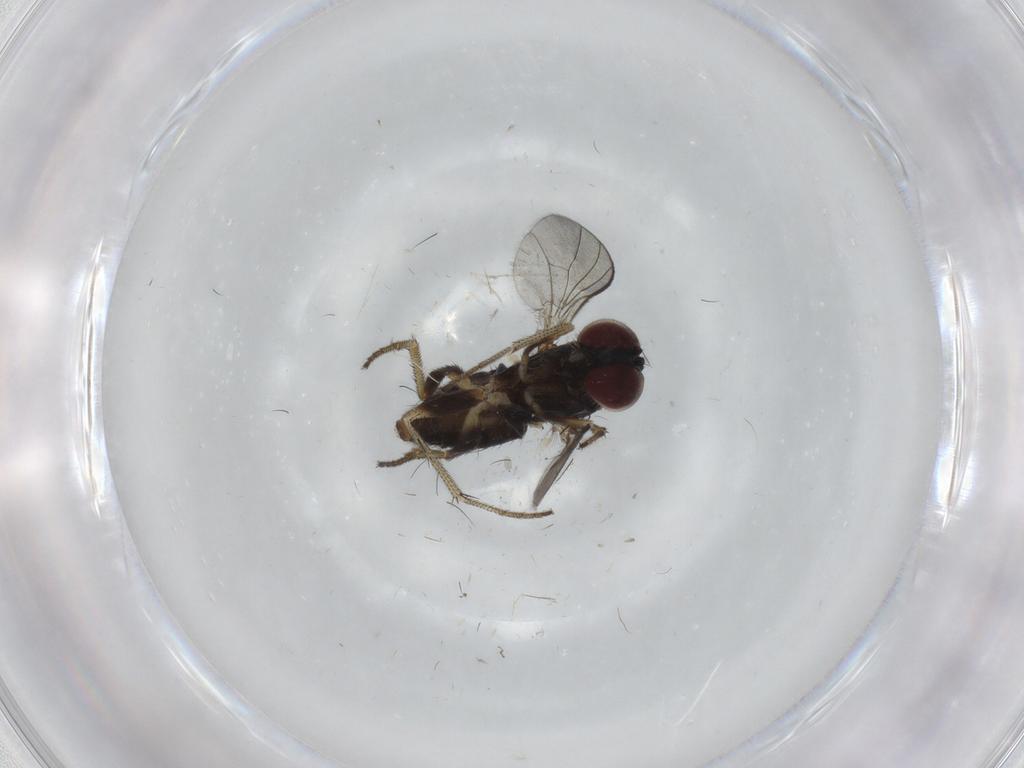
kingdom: Animalia
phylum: Arthropoda
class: Insecta
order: Diptera
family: Dolichopodidae
